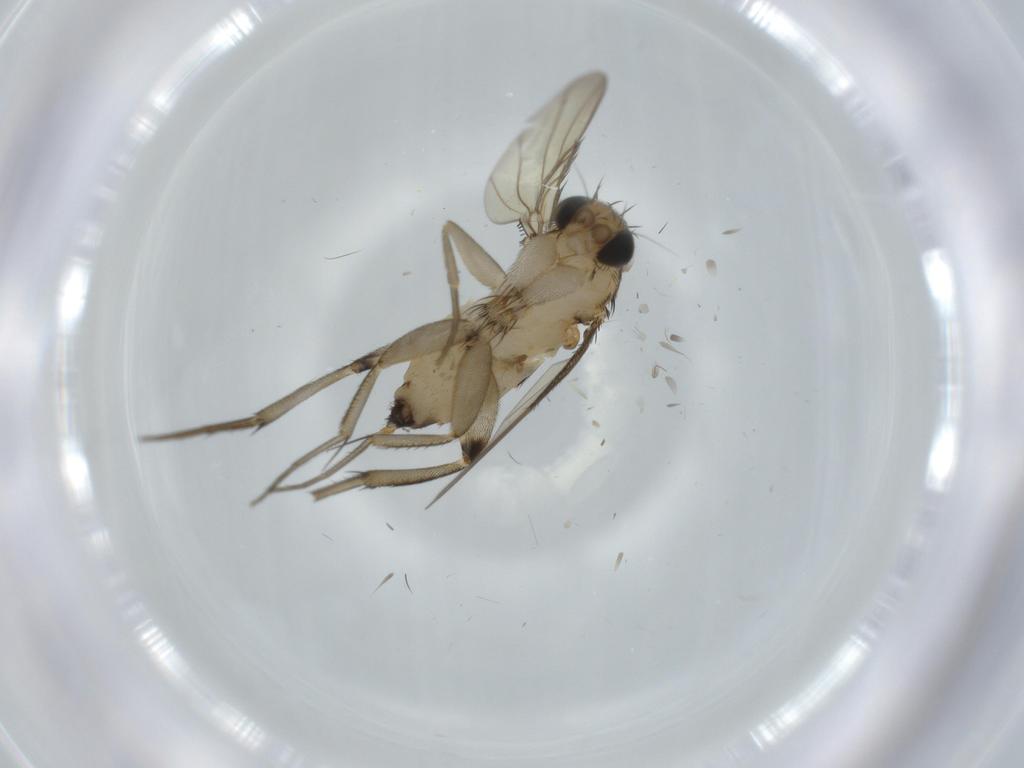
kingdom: Animalia
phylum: Arthropoda
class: Insecta
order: Diptera
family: Phoridae
